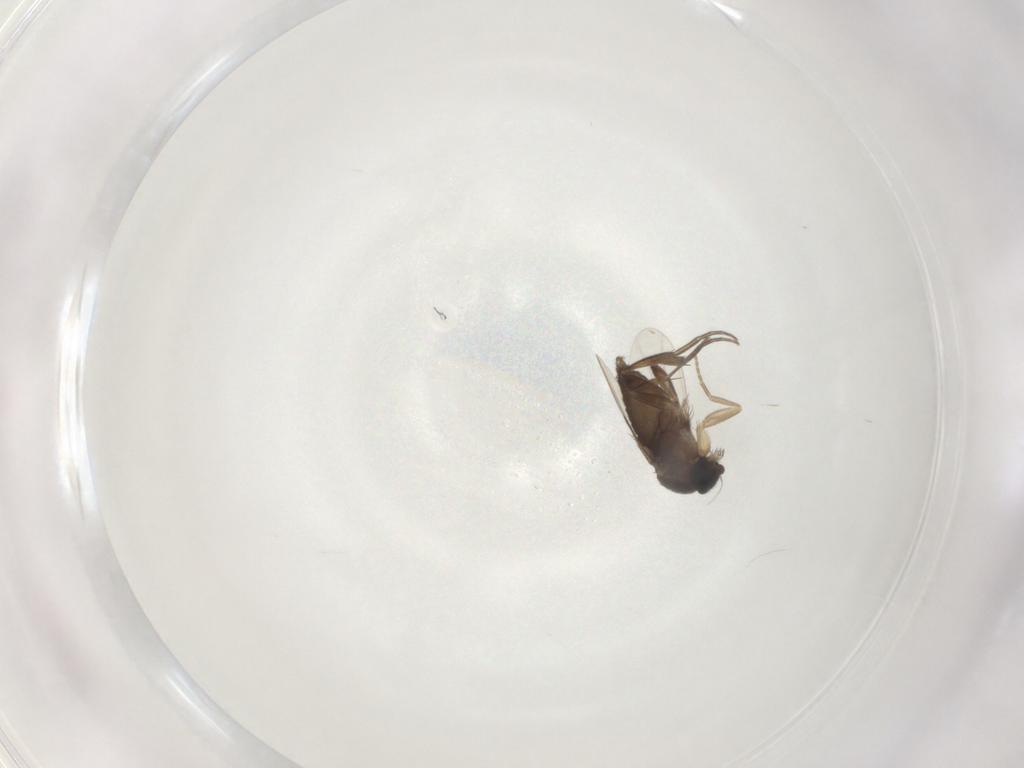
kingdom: Animalia
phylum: Arthropoda
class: Insecta
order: Diptera
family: Phoridae
